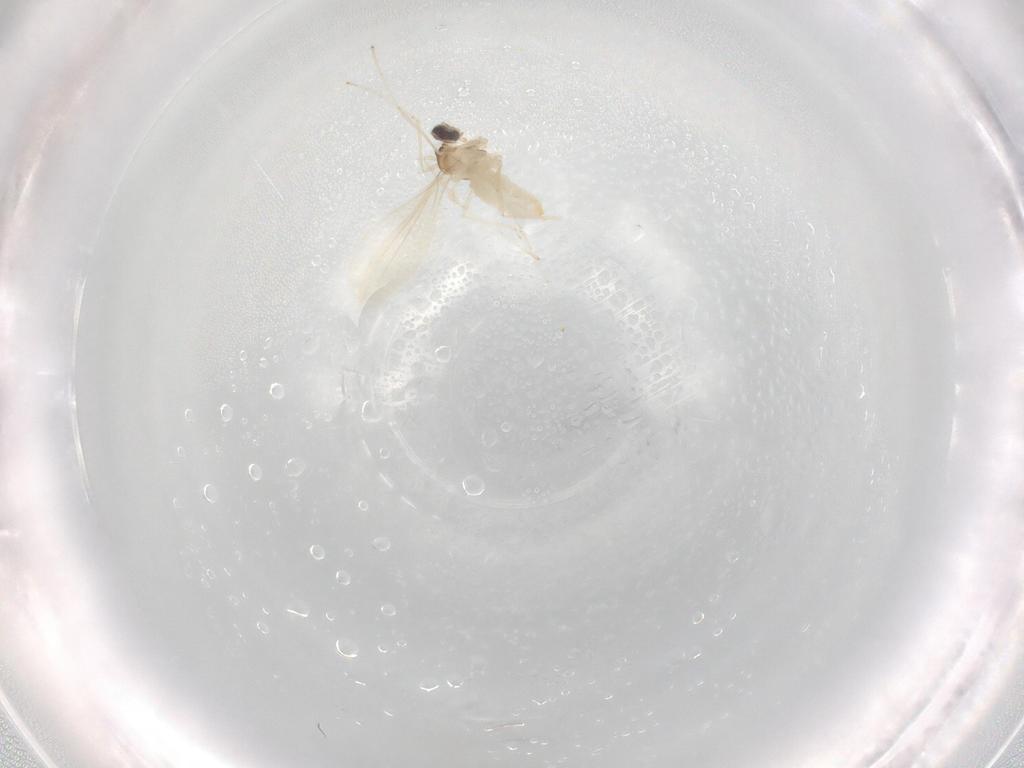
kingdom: Animalia
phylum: Arthropoda
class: Insecta
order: Diptera
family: Cecidomyiidae
